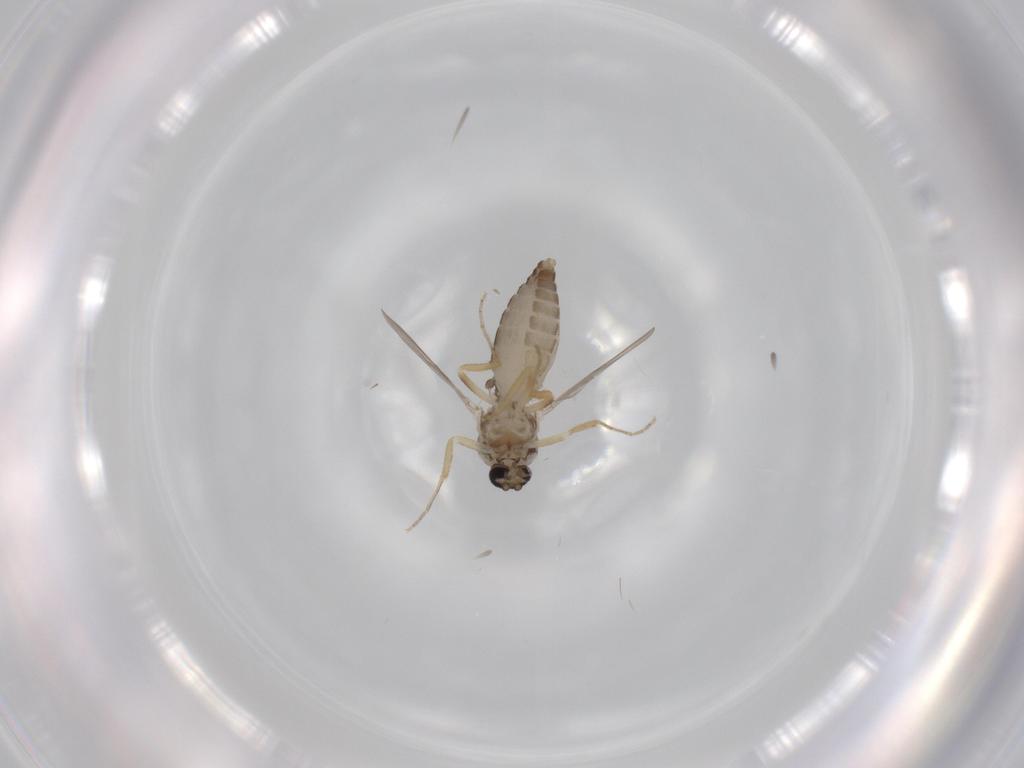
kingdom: Animalia
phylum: Arthropoda
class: Insecta
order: Diptera
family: Ceratopogonidae
